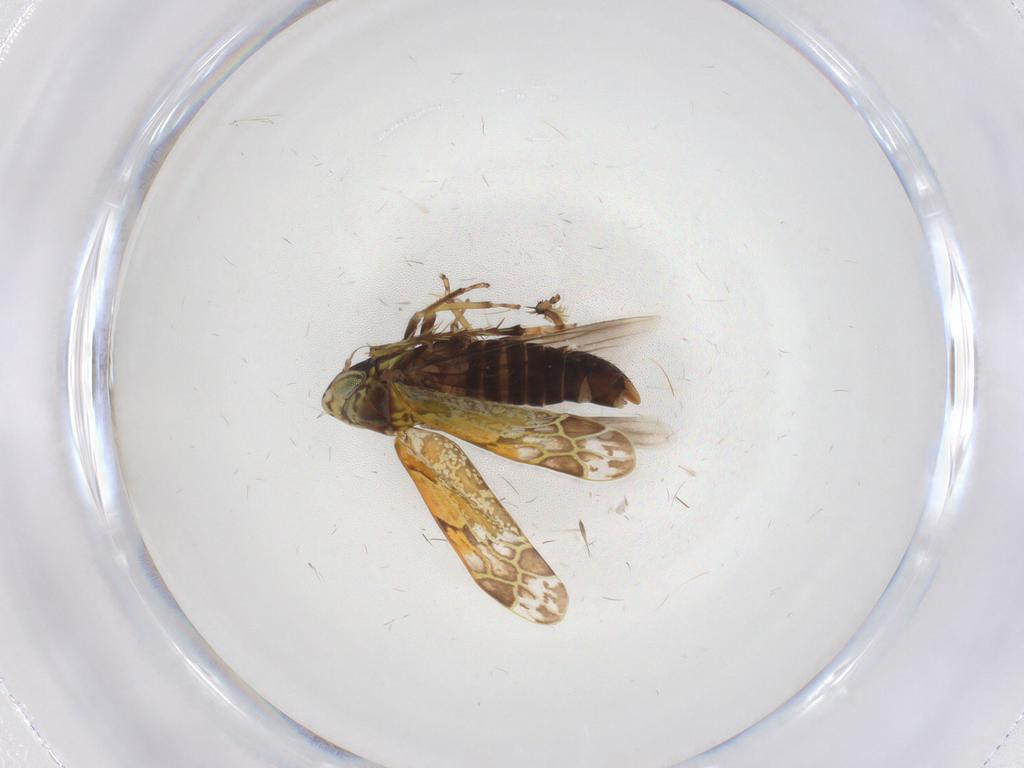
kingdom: Animalia
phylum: Arthropoda
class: Insecta
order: Hemiptera
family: Cicadellidae
